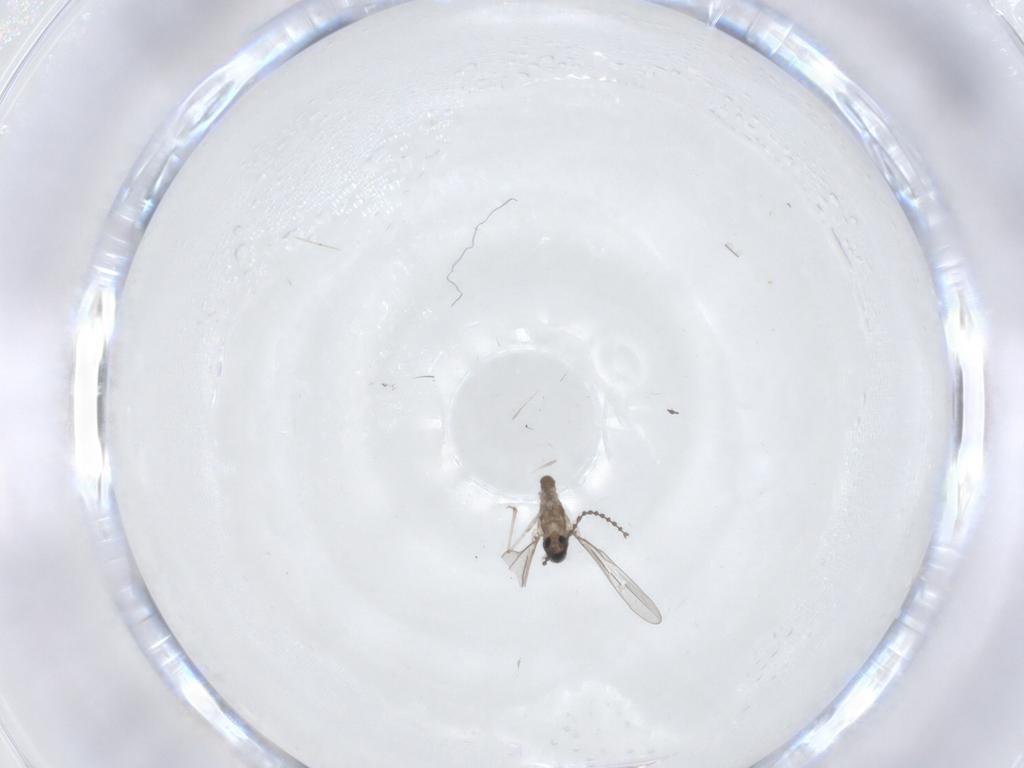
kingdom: Animalia
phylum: Arthropoda
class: Insecta
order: Diptera
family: Cecidomyiidae
